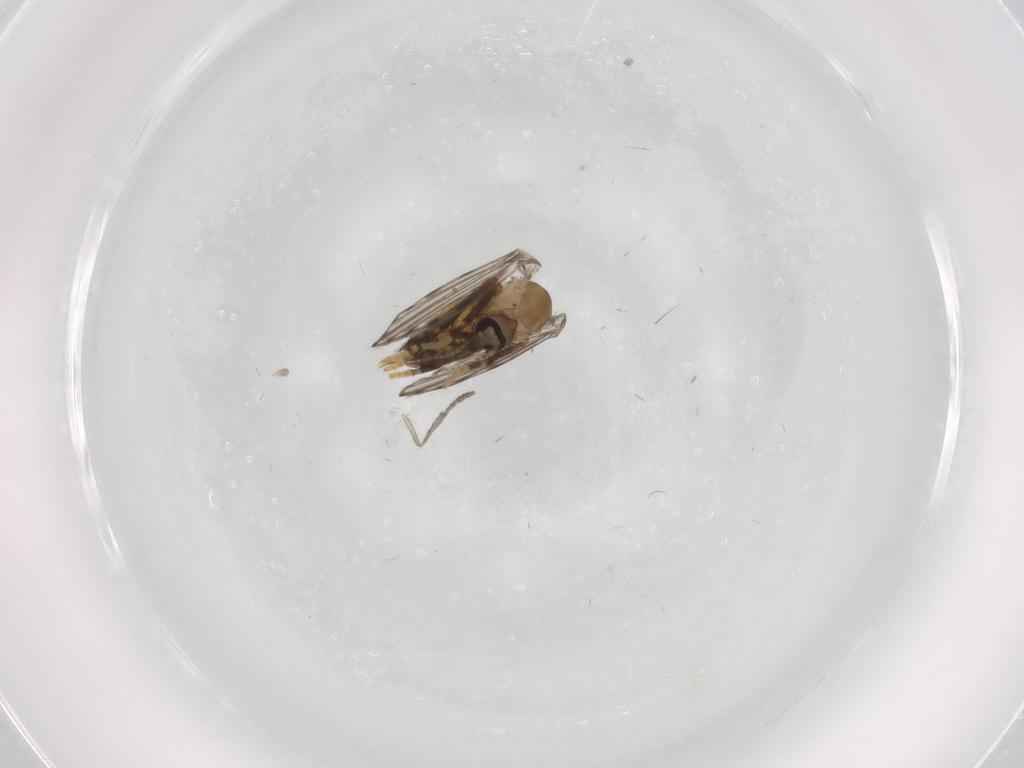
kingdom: Animalia
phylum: Arthropoda
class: Insecta
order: Diptera
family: Psychodidae
